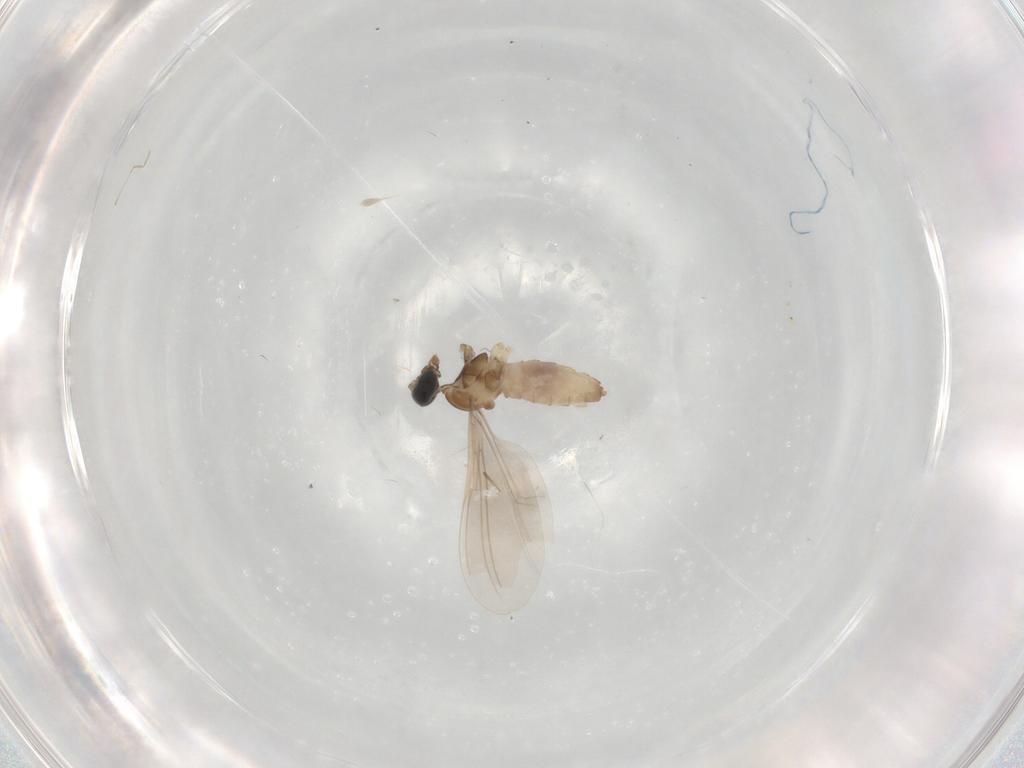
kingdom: Animalia
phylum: Arthropoda
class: Insecta
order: Diptera
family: Cecidomyiidae
